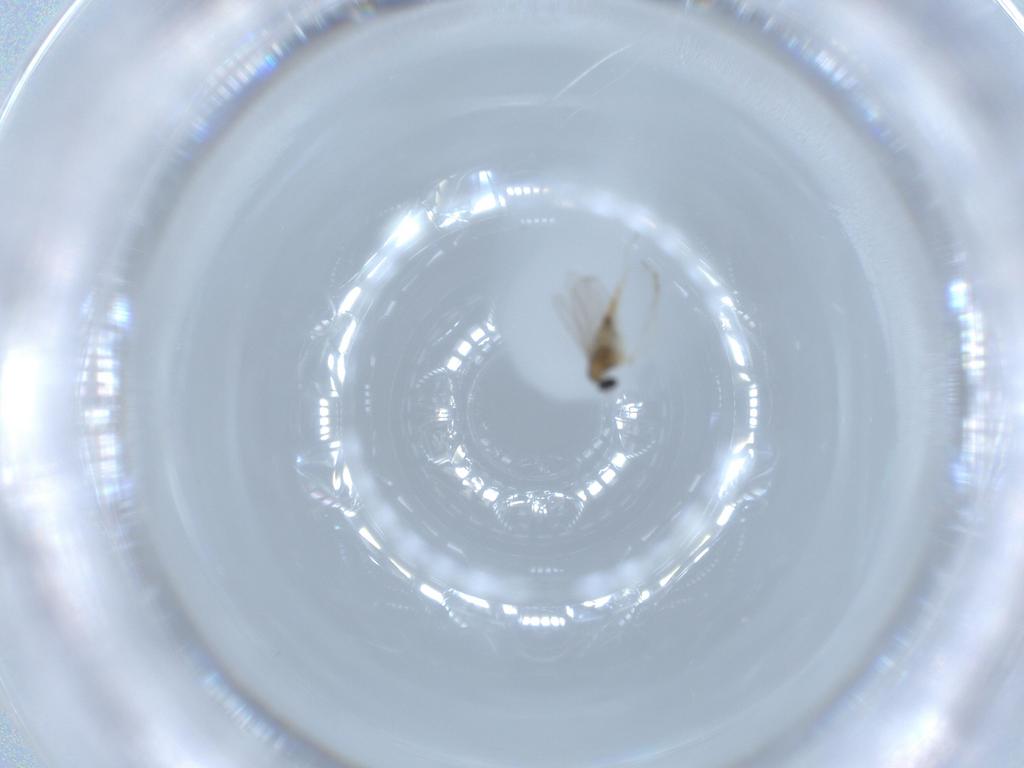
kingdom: Animalia
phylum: Arthropoda
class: Insecta
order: Diptera
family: Cecidomyiidae
